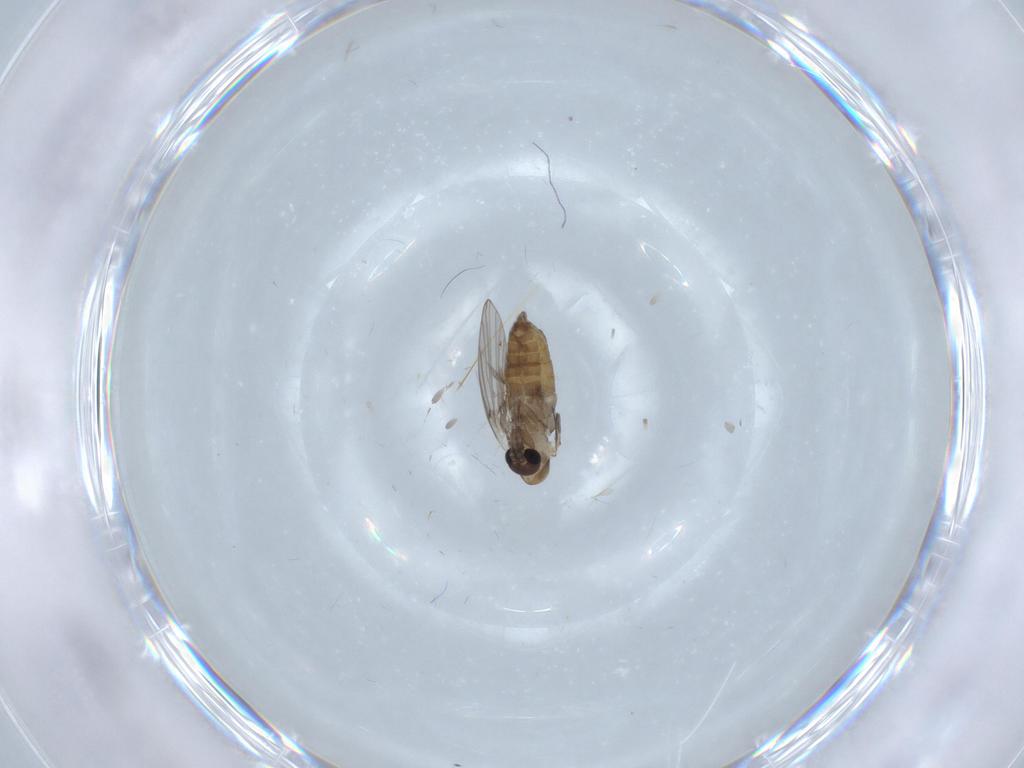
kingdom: Animalia
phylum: Arthropoda
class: Insecta
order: Diptera
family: Psychodidae
